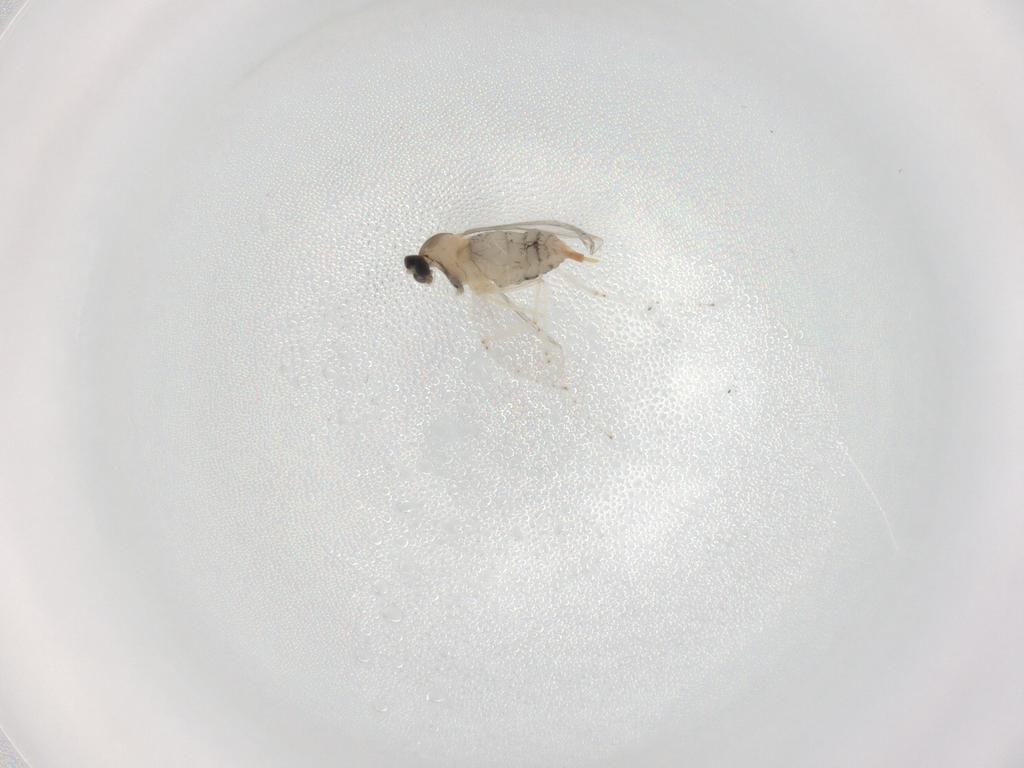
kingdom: Animalia
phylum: Arthropoda
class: Insecta
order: Diptera
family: Cecidomyiidae
